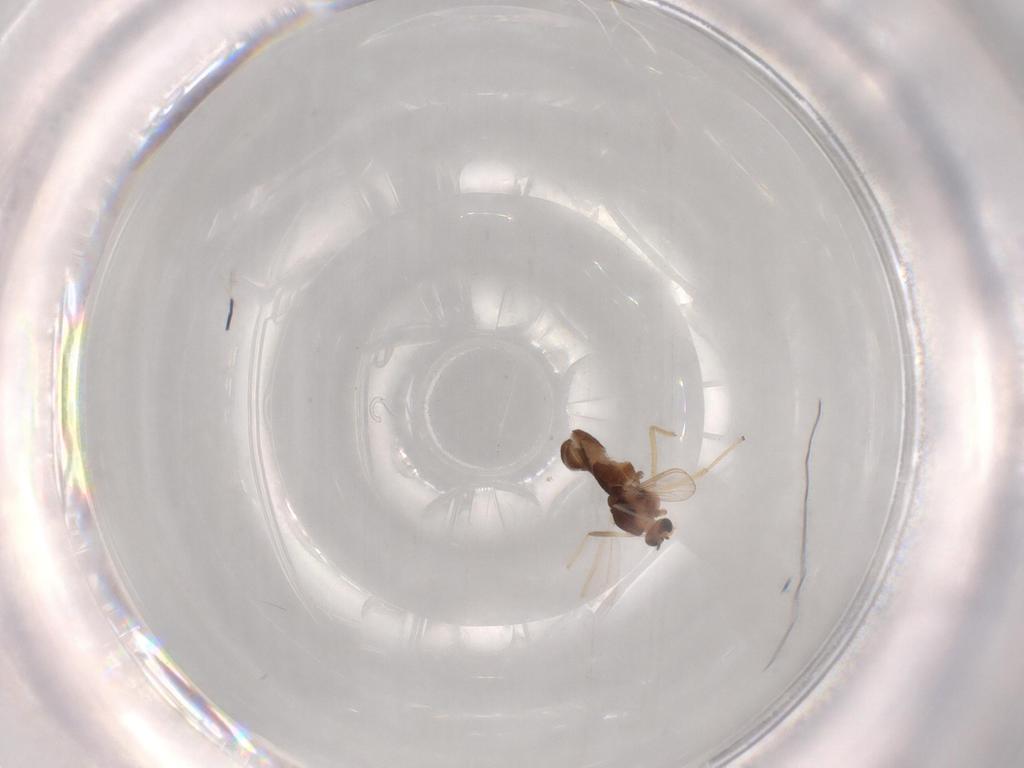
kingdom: Animalia
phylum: Arthropoda
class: Insecta
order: Diptera
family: Chironomidae
